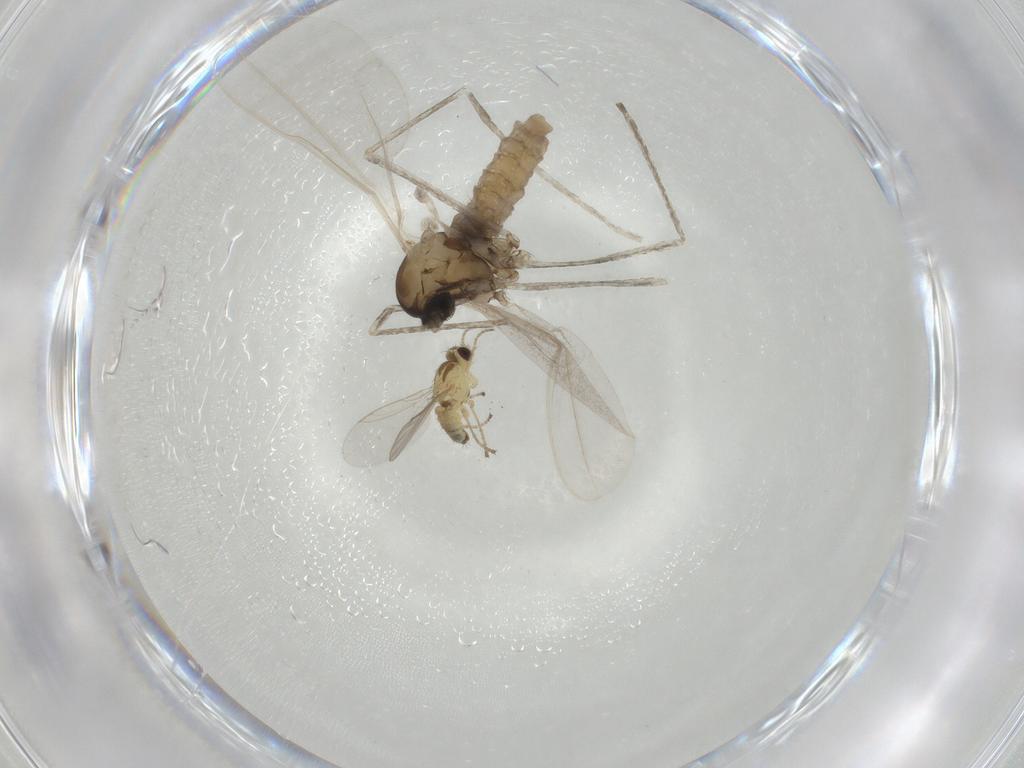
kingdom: Animalia
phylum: Arthropoda
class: Insecta
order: Diptera
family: Cecidomyiidae
